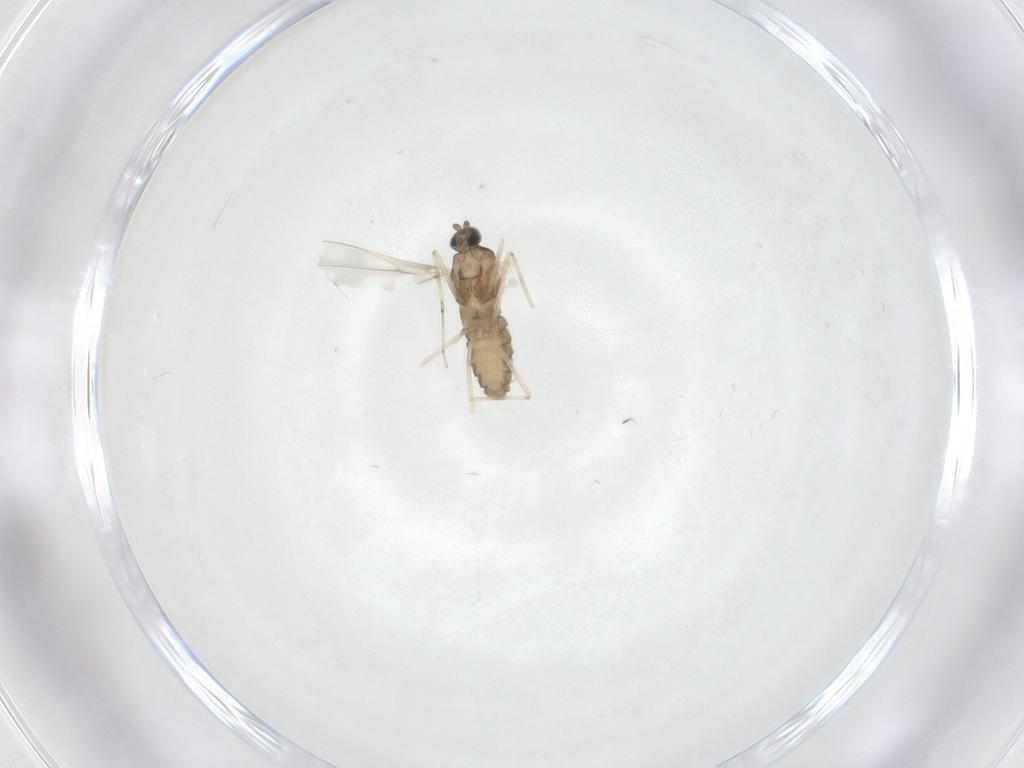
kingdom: Animalia
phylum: Arthropoda
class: Insecta
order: Diptera
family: Cecidomyiidae
